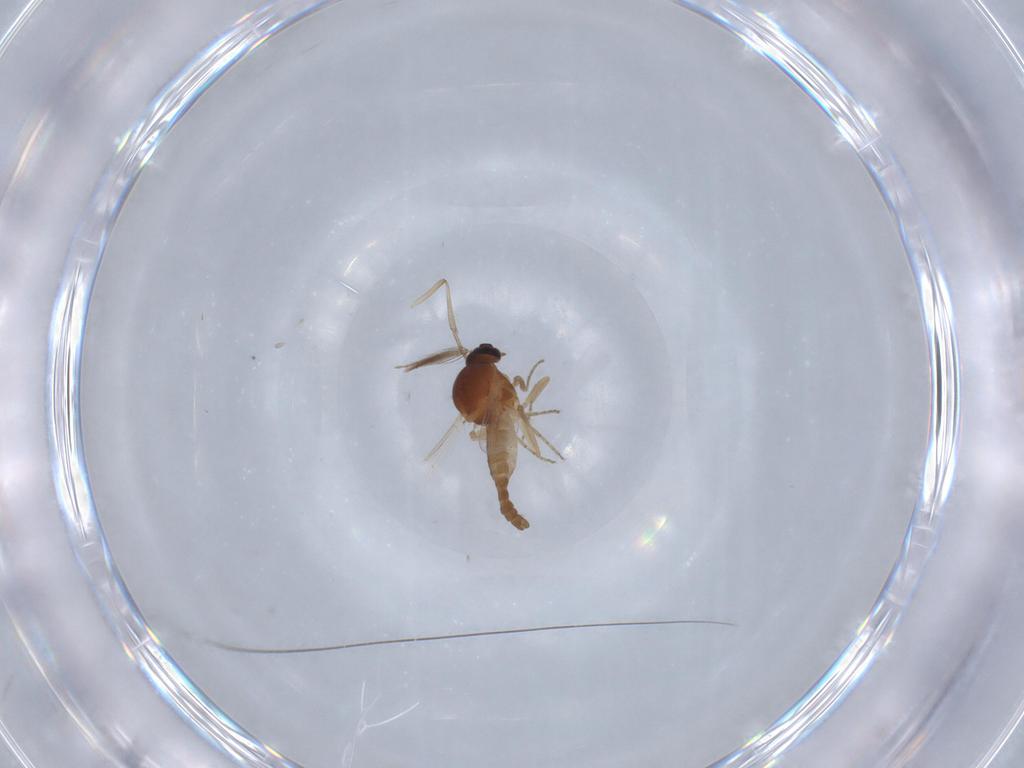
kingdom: Animalia
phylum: Arthropoda
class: Insecta
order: Diptera
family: Ceratopogonidae
